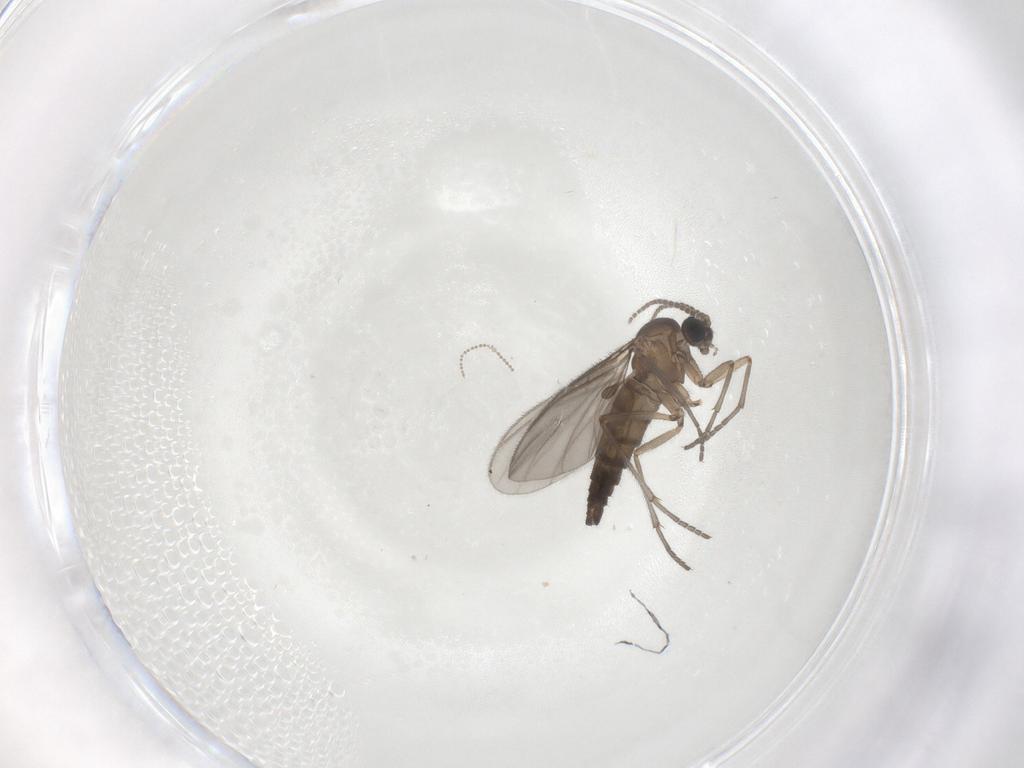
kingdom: Animalia
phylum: Arthropoda
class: Insecta
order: Diptera
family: Sciaridae
